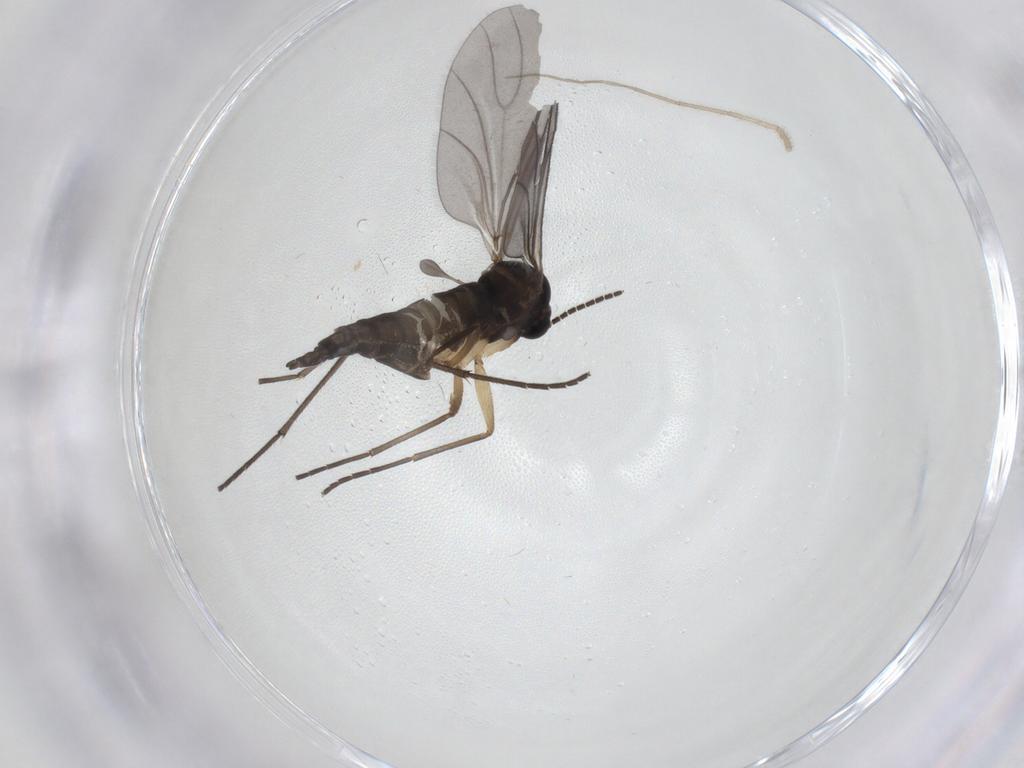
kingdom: Animalia
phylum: Arthropoda
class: Insecta
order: Diptera
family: Sciaridae
